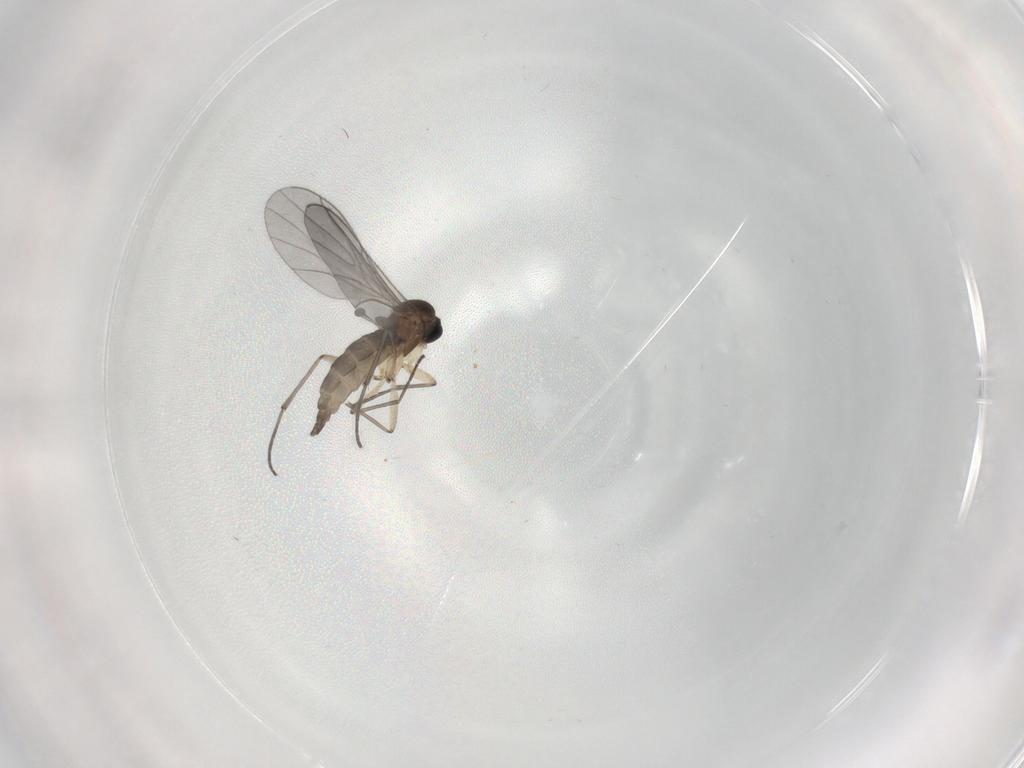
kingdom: Animalia
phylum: Arthropoda
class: Insecta
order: Diptera
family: Sciaridae
